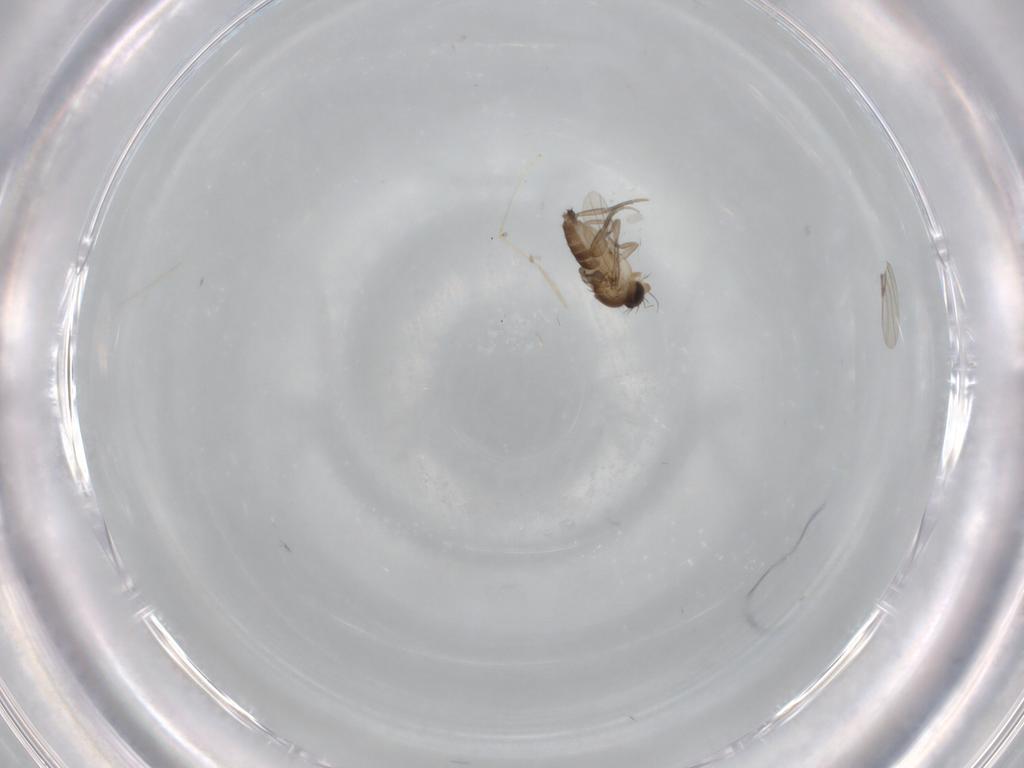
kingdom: Animalia
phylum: Arthropoda
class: Insecta
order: Diptera
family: Phoridae
